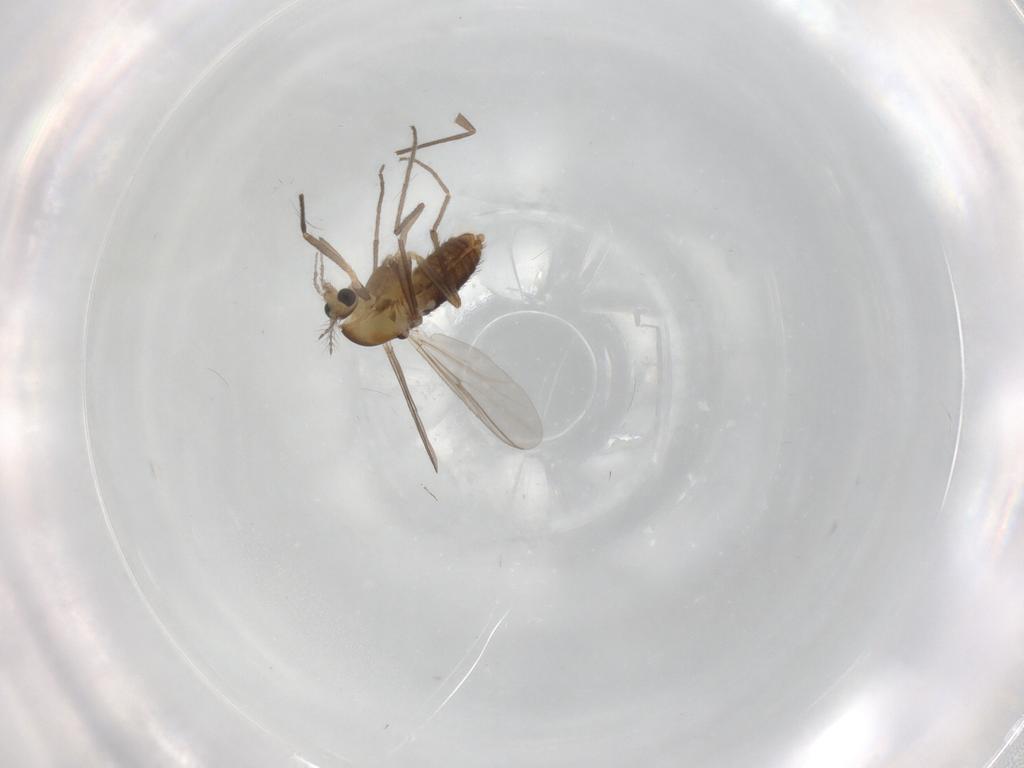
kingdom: Animalia
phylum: Arthropoda
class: Insecta
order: Diptera
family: Chironomidae
